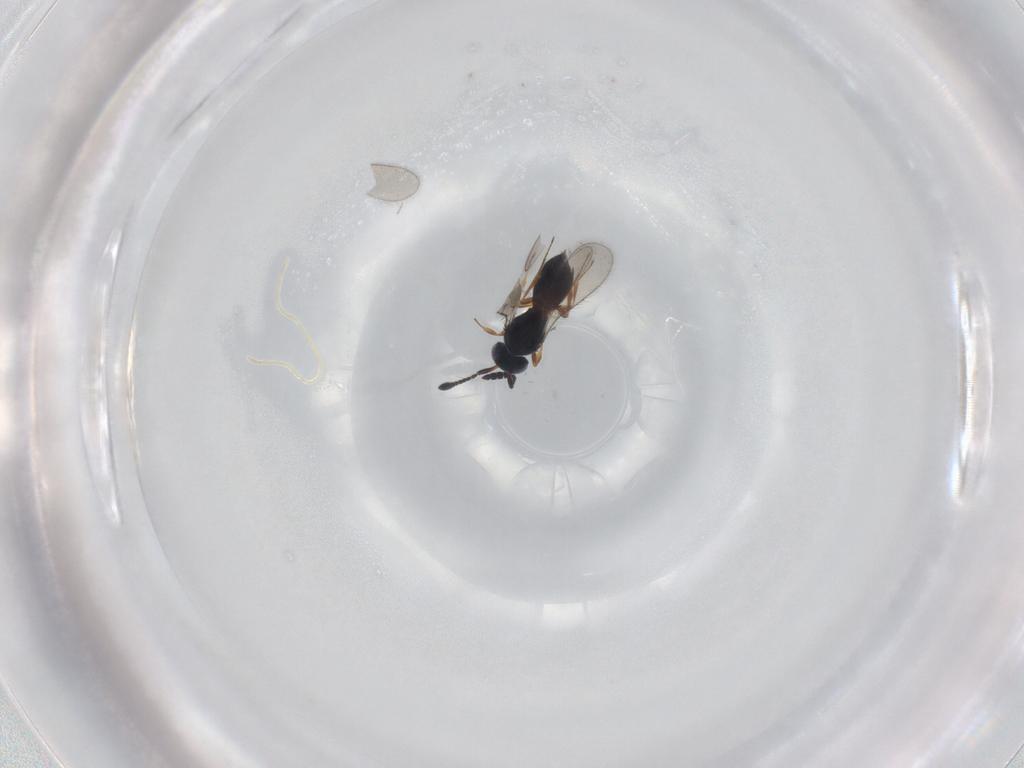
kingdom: Animalia
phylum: Arthropoda
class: Insecta
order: Hymenoptera
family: Scelionidae
